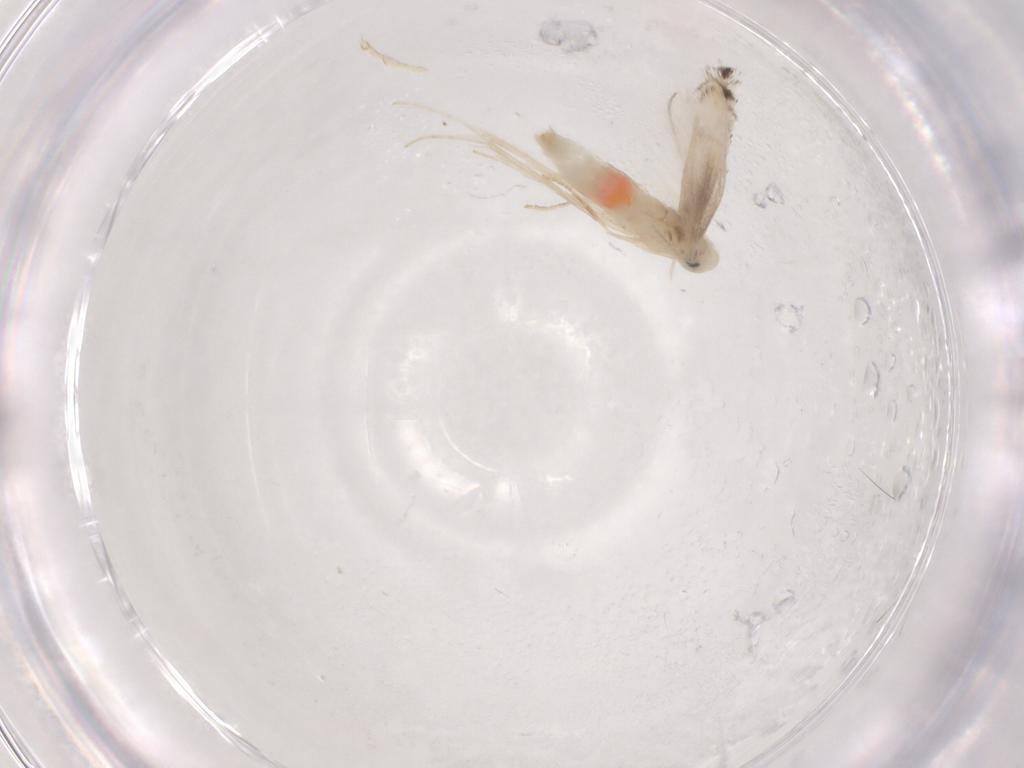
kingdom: Animalia
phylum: Arthropoda
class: Insecta
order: Lepidoptera
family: Gracillariidae
